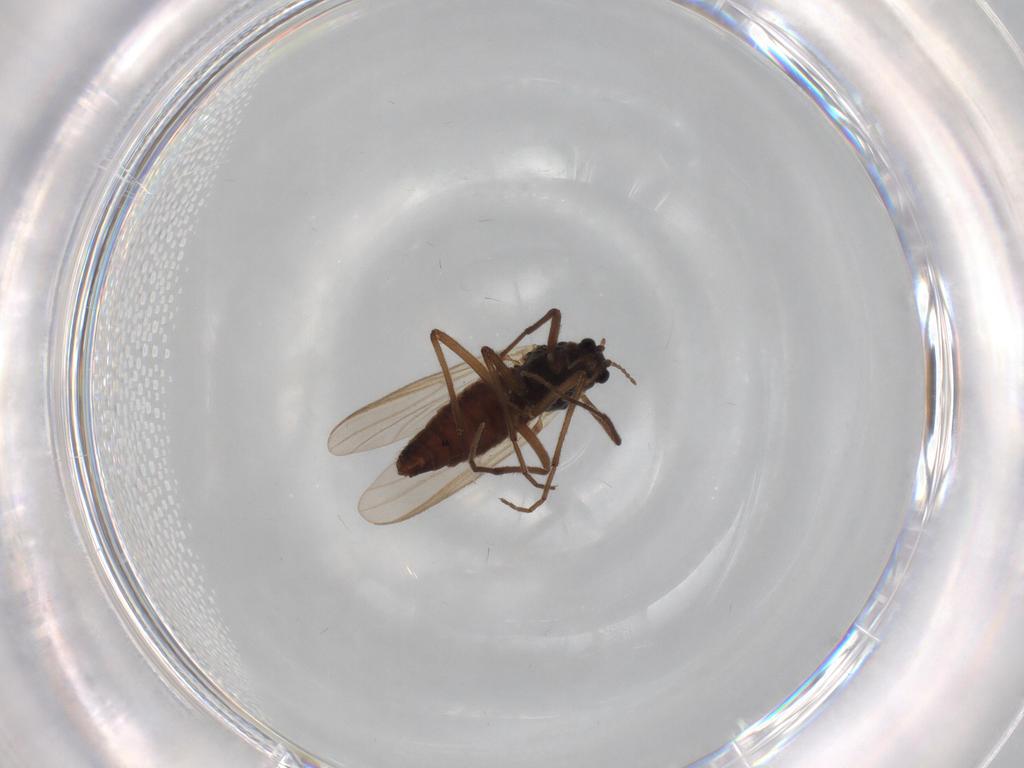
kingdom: Animalia
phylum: Arthropoda
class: Insecta
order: Diptera
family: Chironomidae
